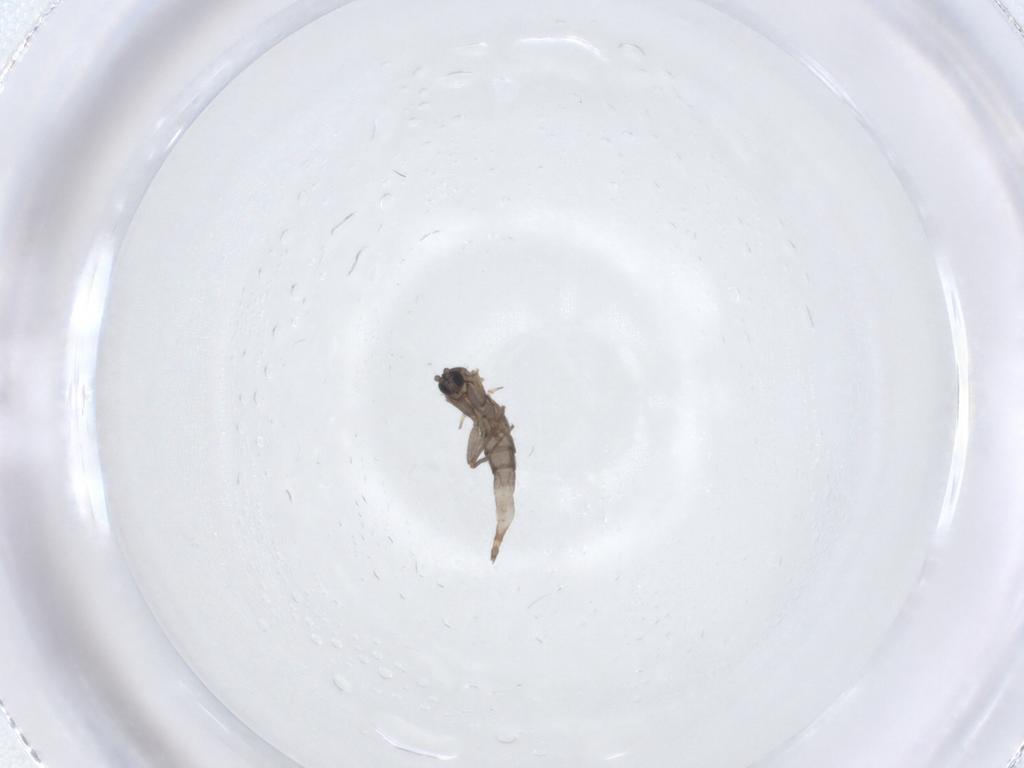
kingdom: Animalia
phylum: Arthropoda
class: Insecta
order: Diptera
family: Sciaridae
